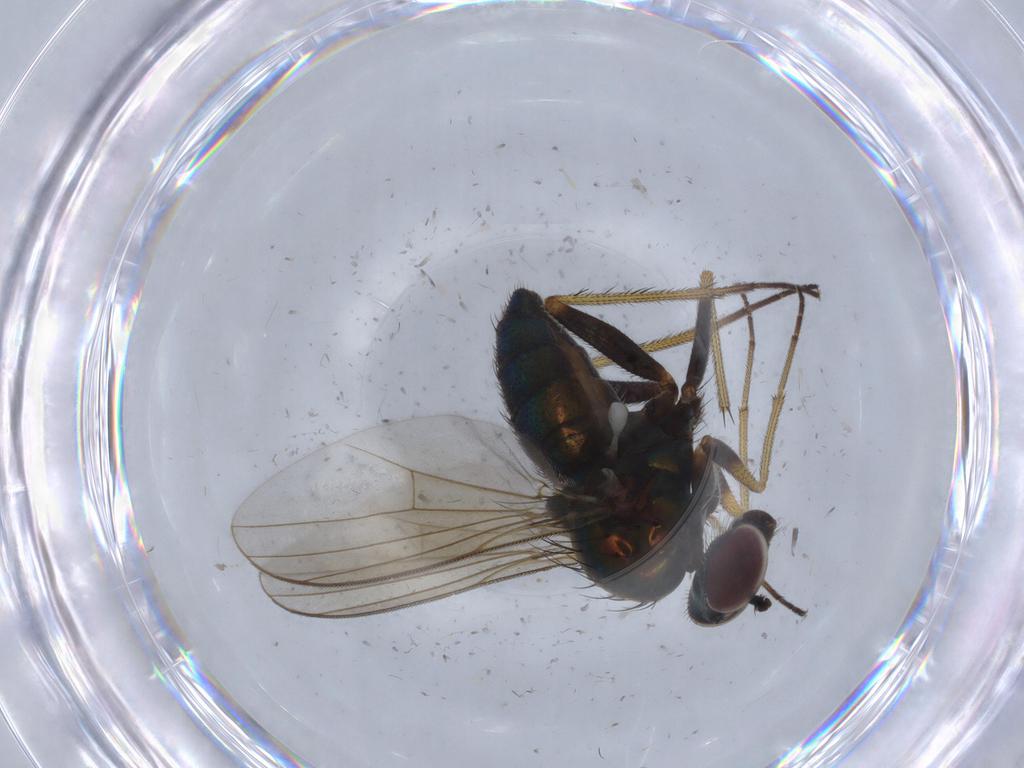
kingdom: Animalia
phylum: Arthropoda
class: Insecta
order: Diptera
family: Dolichopodidae
